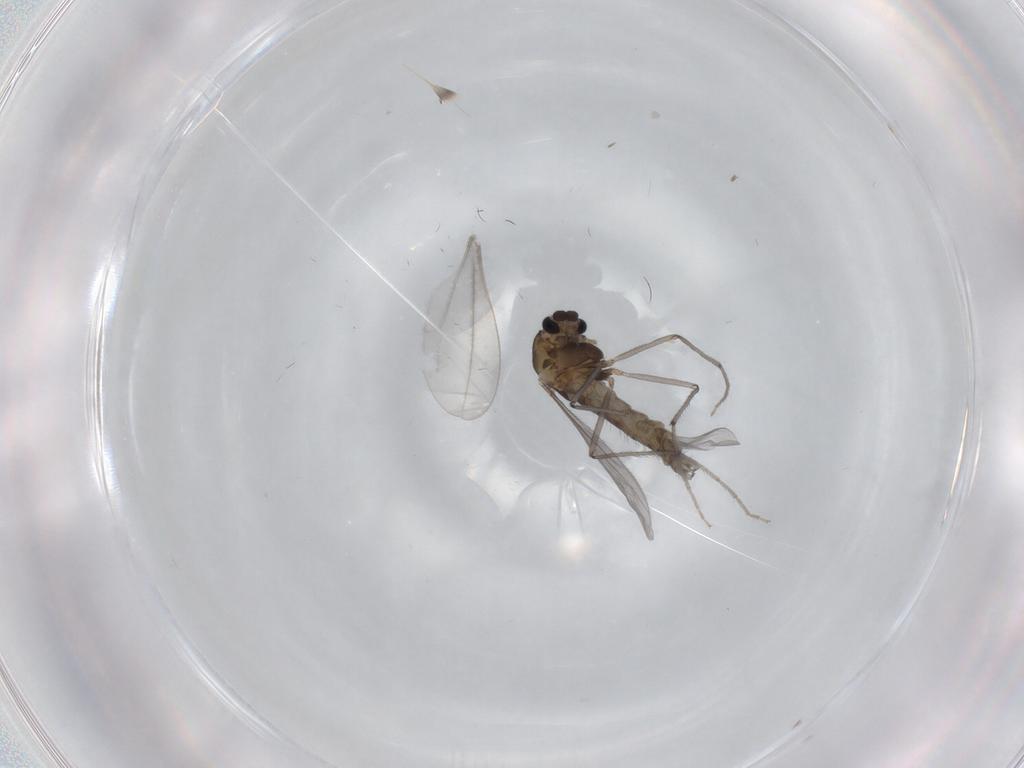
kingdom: Animalia
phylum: Arthropoda
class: Insecta
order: Diptera
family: Chironomidae
